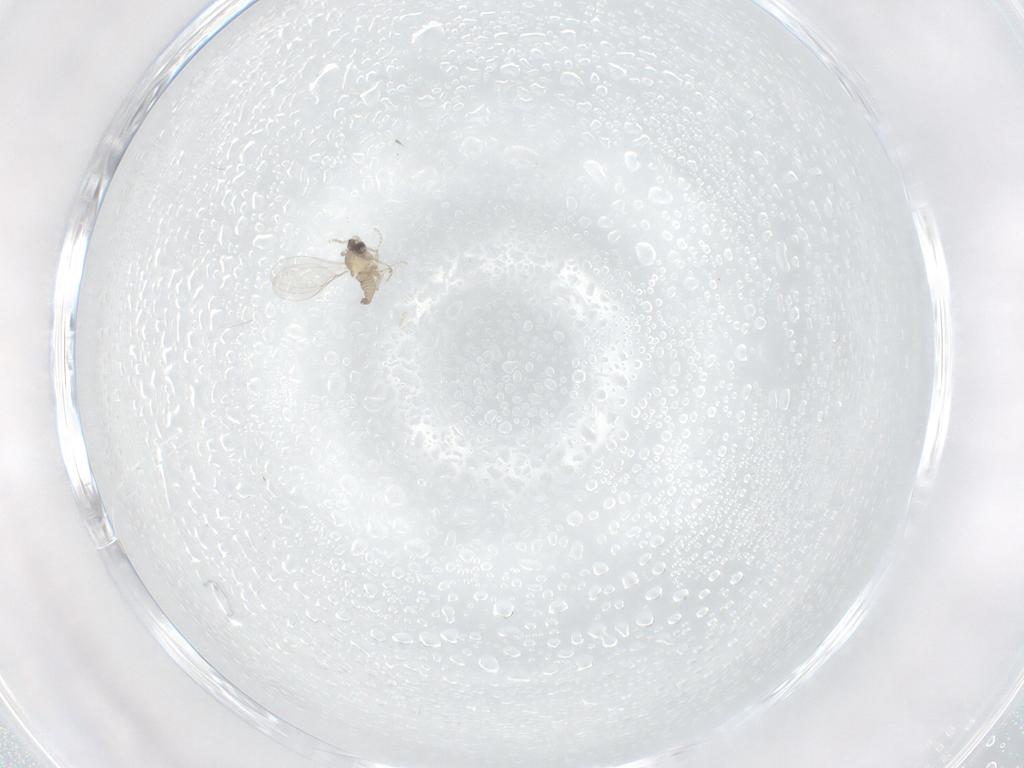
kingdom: Animalia
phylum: Arthropoda
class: Insecta
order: Diptera
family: Cecidomyiidae
